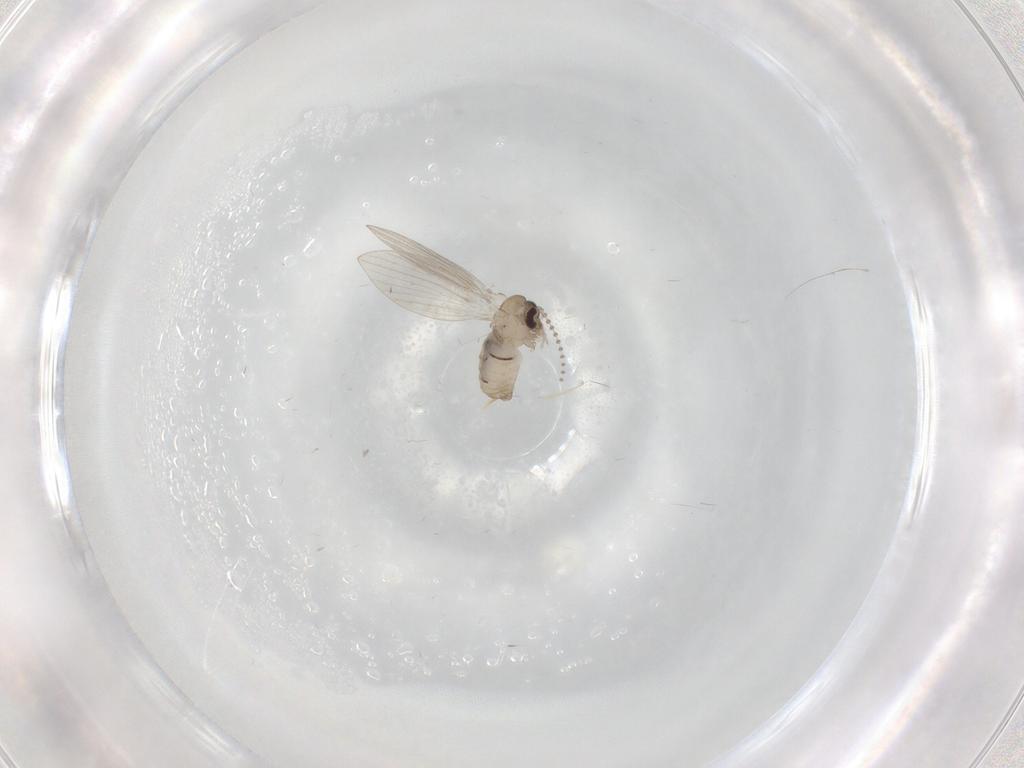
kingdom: Animalia
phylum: Arthropoda
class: Insecta
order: Diptera
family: Psychodidae
